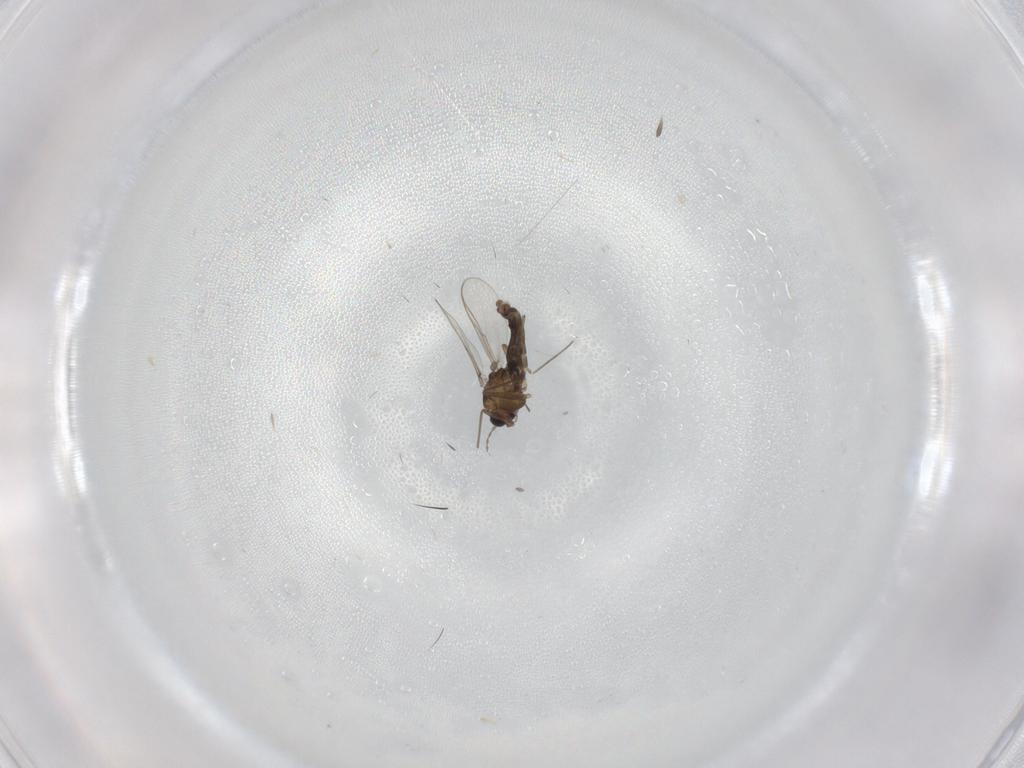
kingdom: Animalia
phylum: Arthropoda
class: Insecta
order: Diptera
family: Chironomidae
